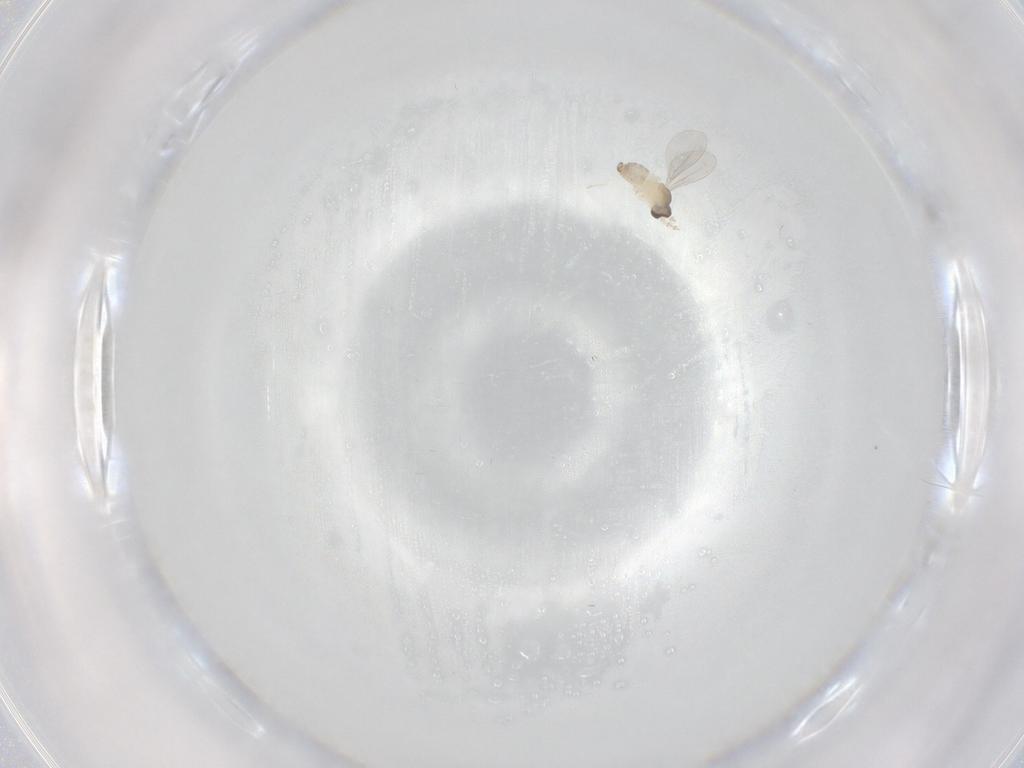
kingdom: Animalia
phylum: Arthropoda
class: Insecta
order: Diptera
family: Cecidomyiidae
